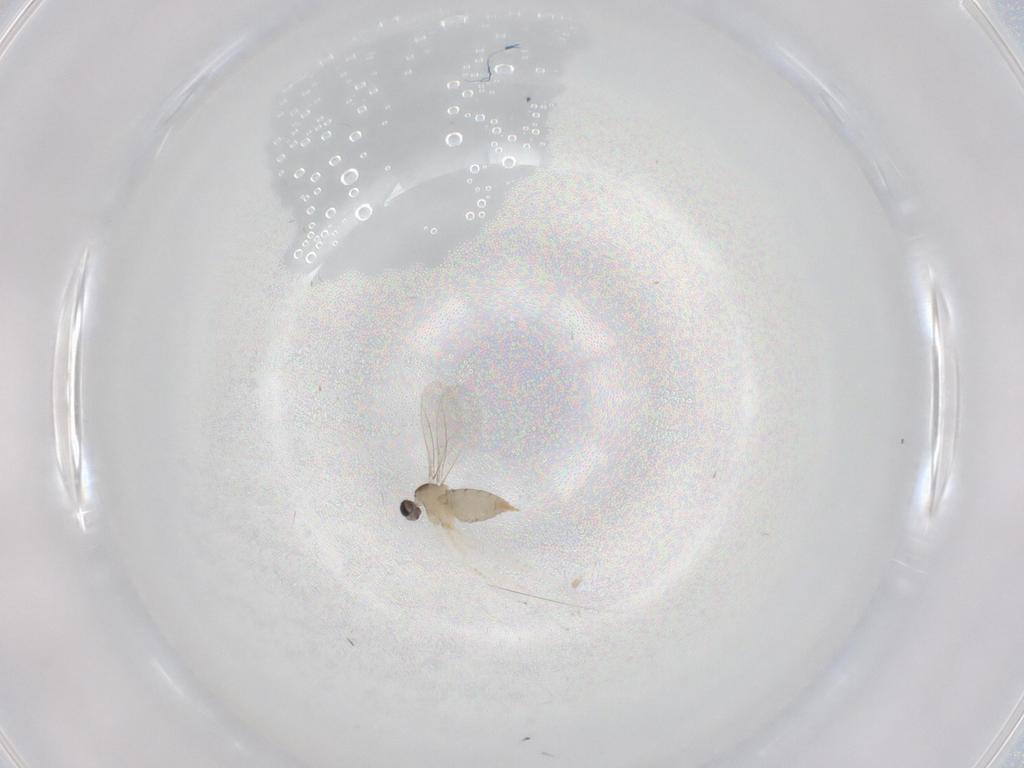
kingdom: Animalia
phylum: Arthropoda
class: Insecta
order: Diptera
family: Cecidomyiidae
